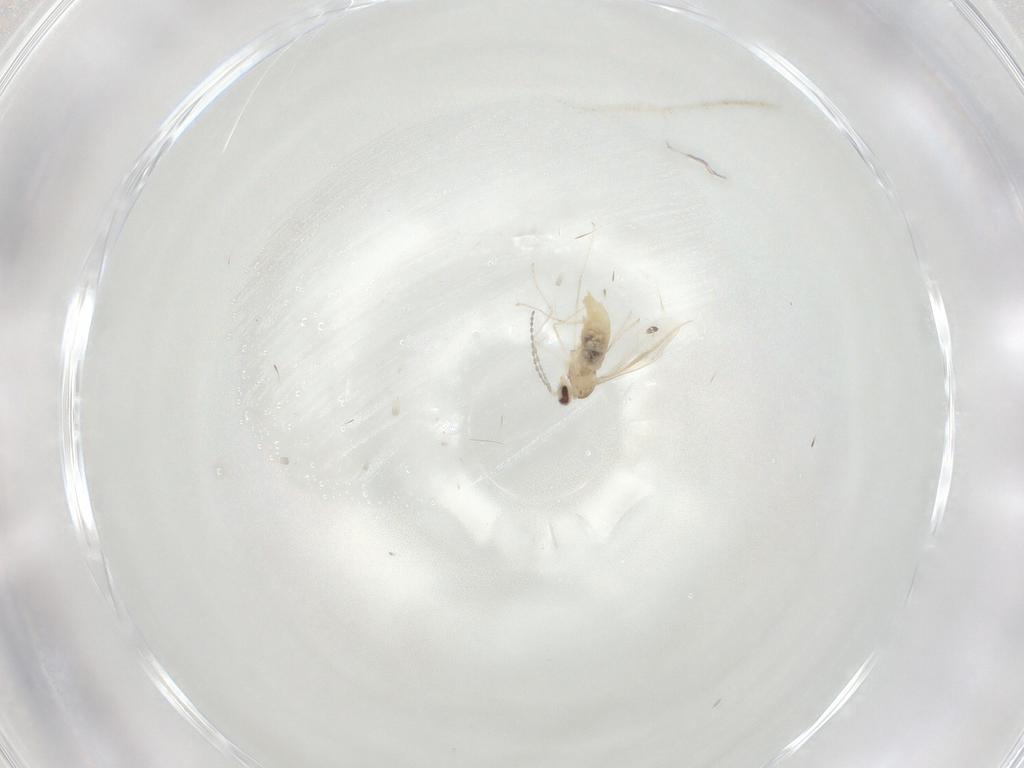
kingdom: Animalia
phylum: Arthropoda
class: Insecta
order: Diptera
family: Cecidomyiidae
